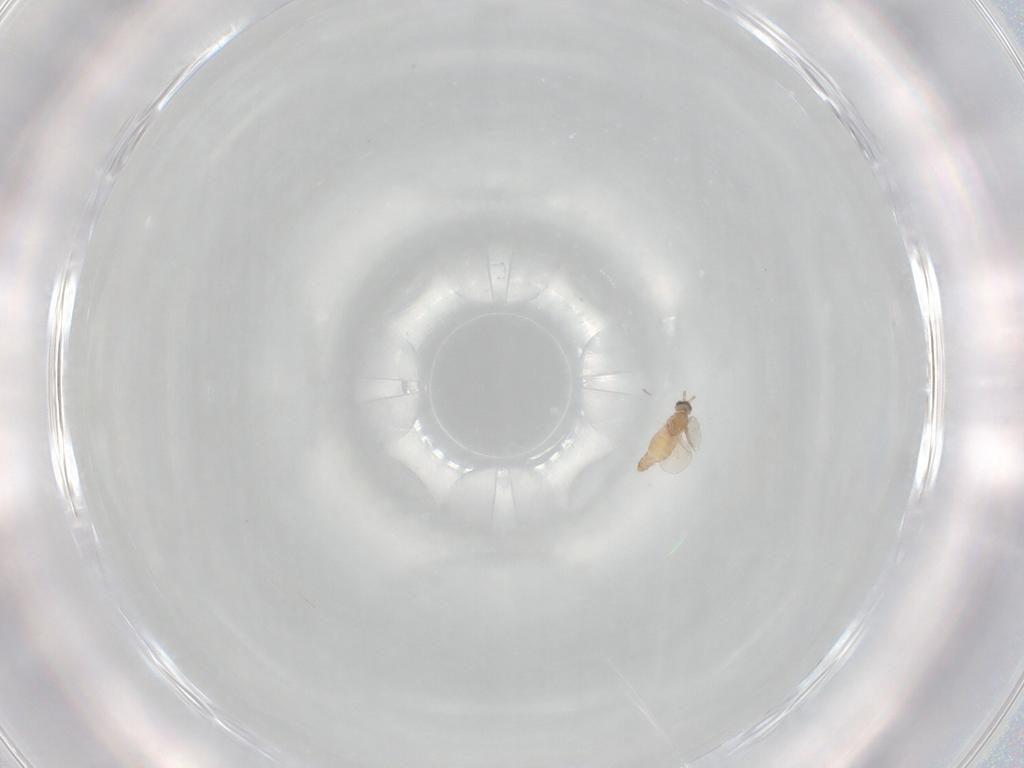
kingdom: Animalia
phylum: Arthropoda
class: Insecta
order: Diptera
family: Cecidomyiidae
